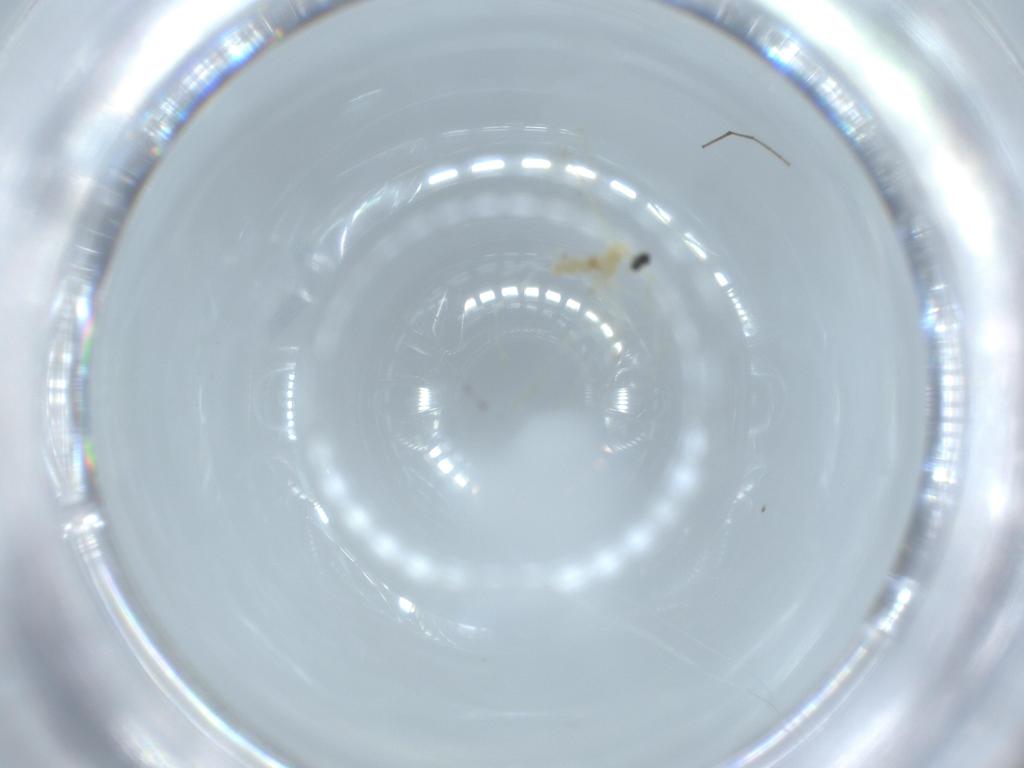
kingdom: Animalia
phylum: Arthropoda
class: Insecta
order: Diptera
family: Cecidomyiidae
